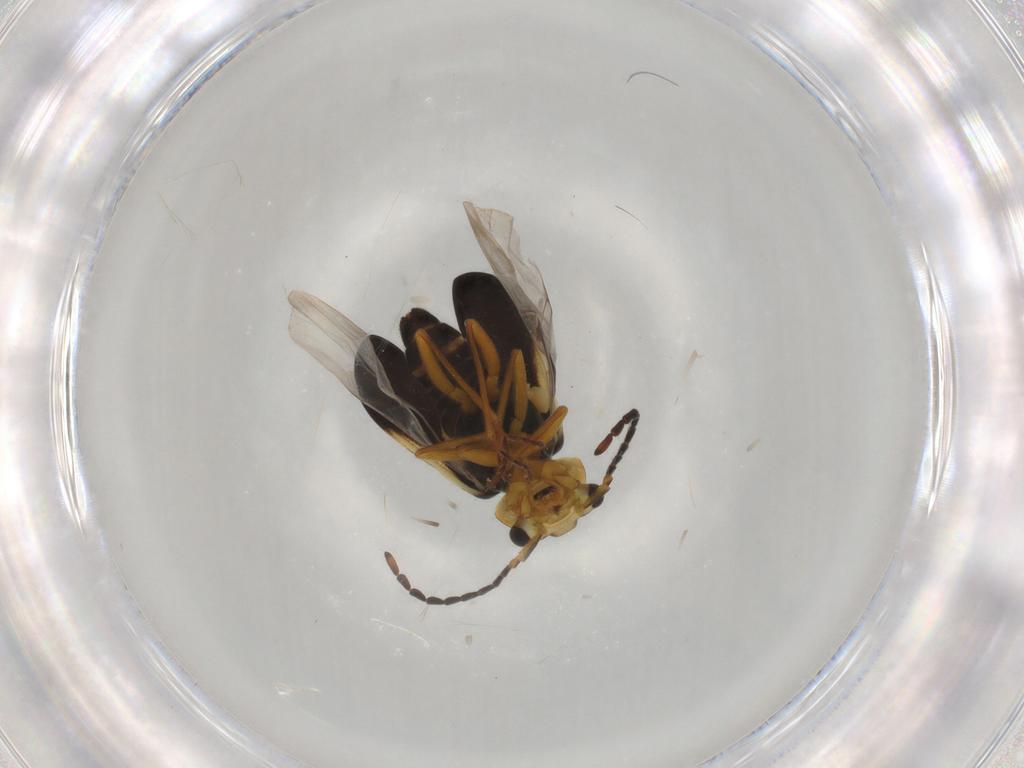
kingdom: Animalia
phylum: Arthropoda
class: Insecta
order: Coleoptera
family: Melyridae
